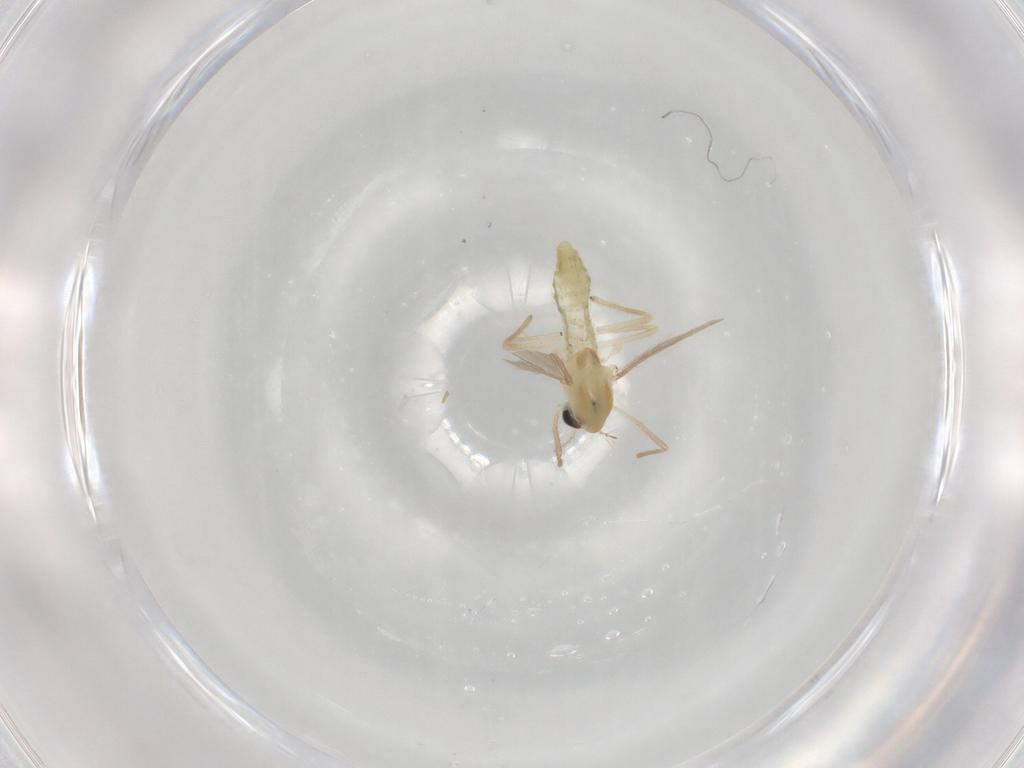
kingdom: Animalia
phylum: Arthropoda
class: Insecta
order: Diptera
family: Chironomidae
